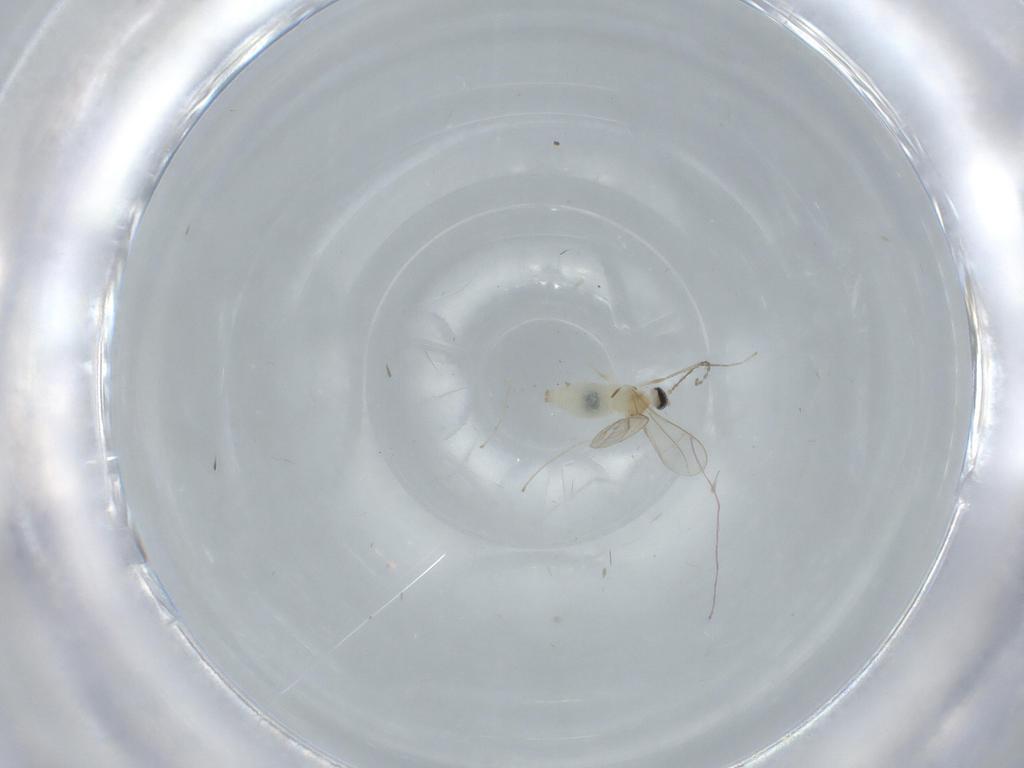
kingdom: Animalia
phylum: Arthropoda
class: Insecta
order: Diptera
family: Cecidomyiidae
